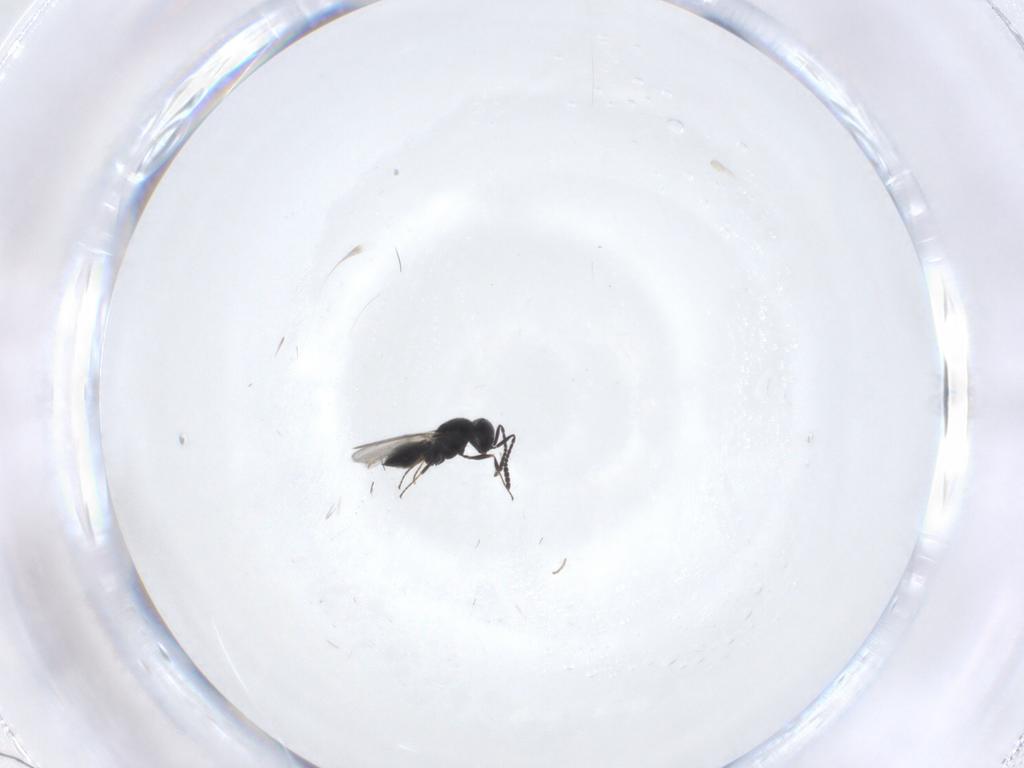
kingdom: Animalia
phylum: Arthropoda
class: Insecta
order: Hymenoptera
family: Scelionidae
